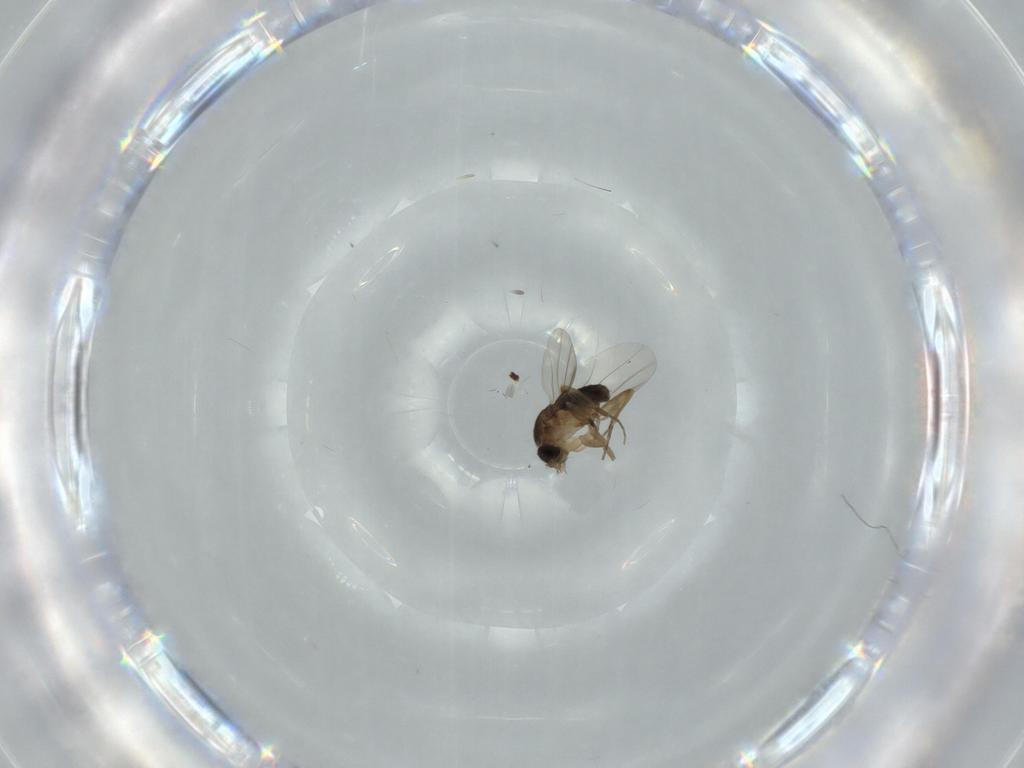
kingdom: Animalia
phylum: Arthropoda
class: Insecta
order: Diptera
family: Phoridae
